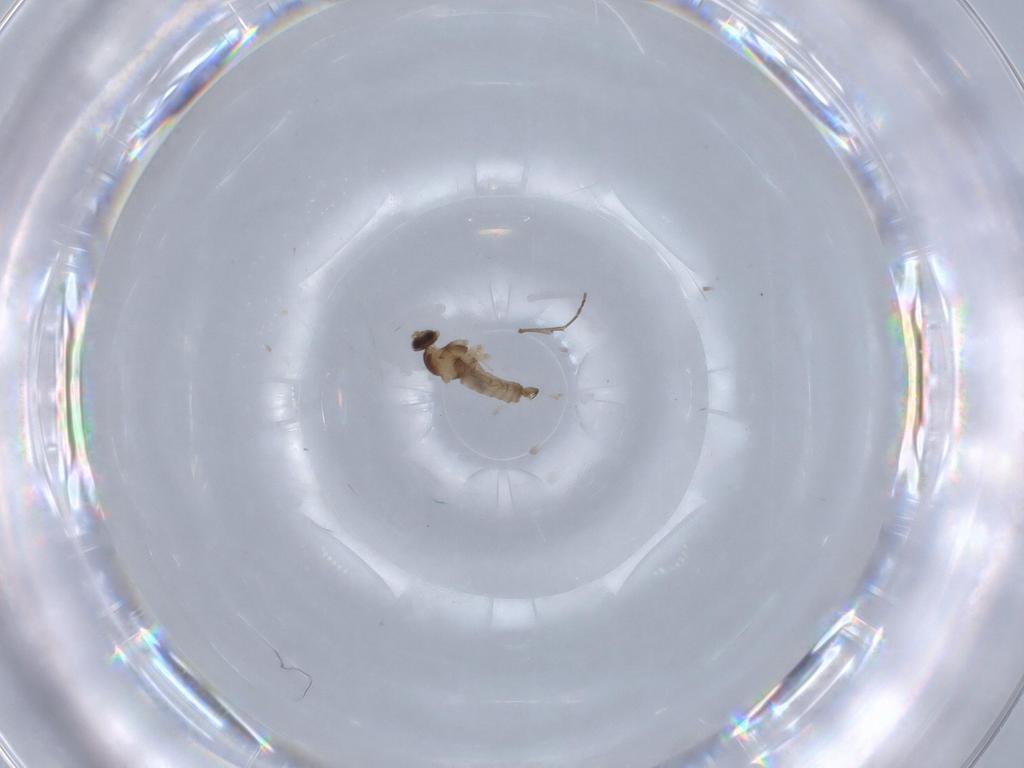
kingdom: Animalia
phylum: Arthropoda
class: Insecta
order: Diptera
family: Cecidomyiidae
